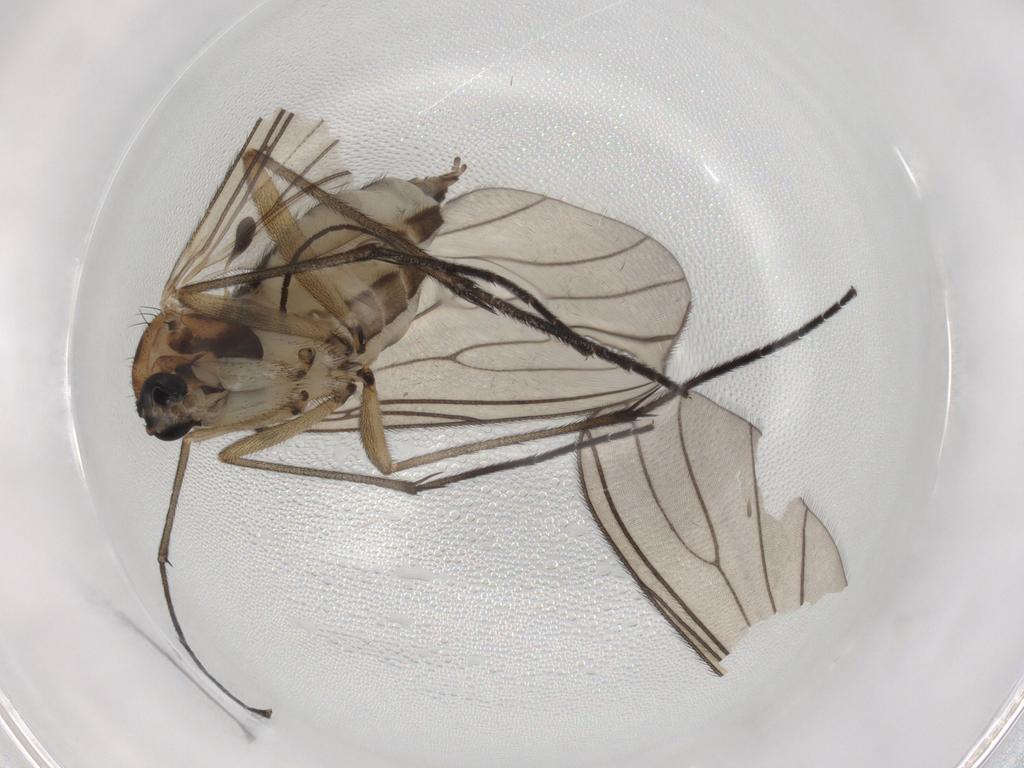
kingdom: Animalia
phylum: Arthropoda
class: Insecta
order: Diptera
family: Sciaridae
